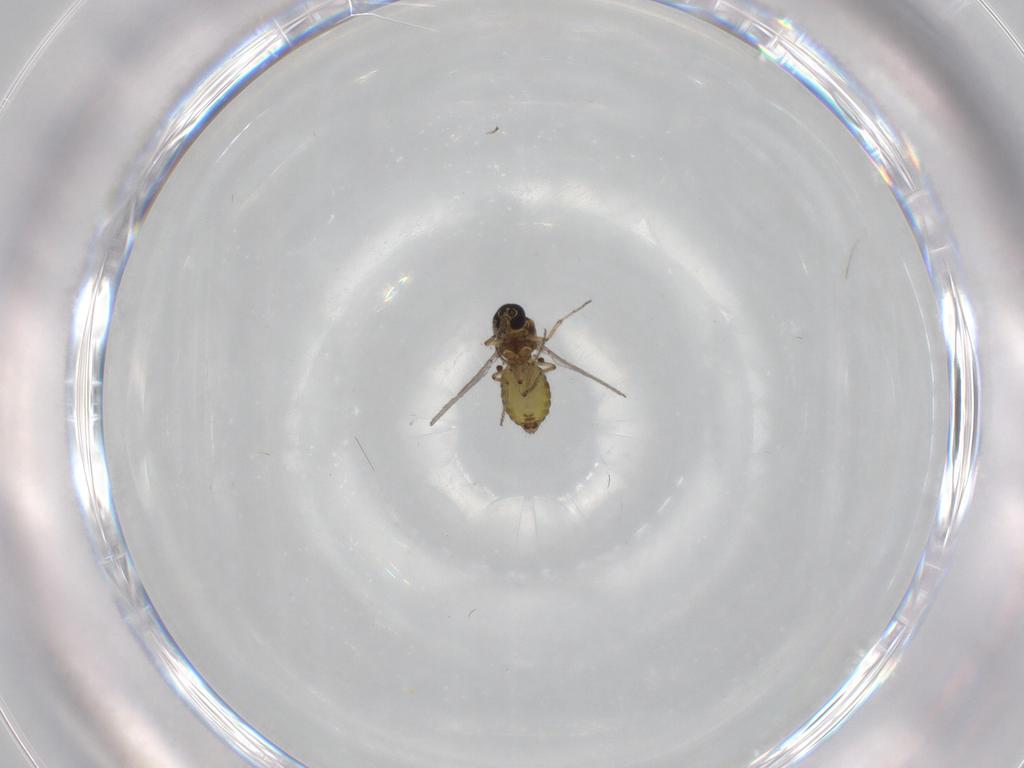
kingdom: Animalia
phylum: Arthropoda
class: Insecta
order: Diptera
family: Ceratopogonidae
